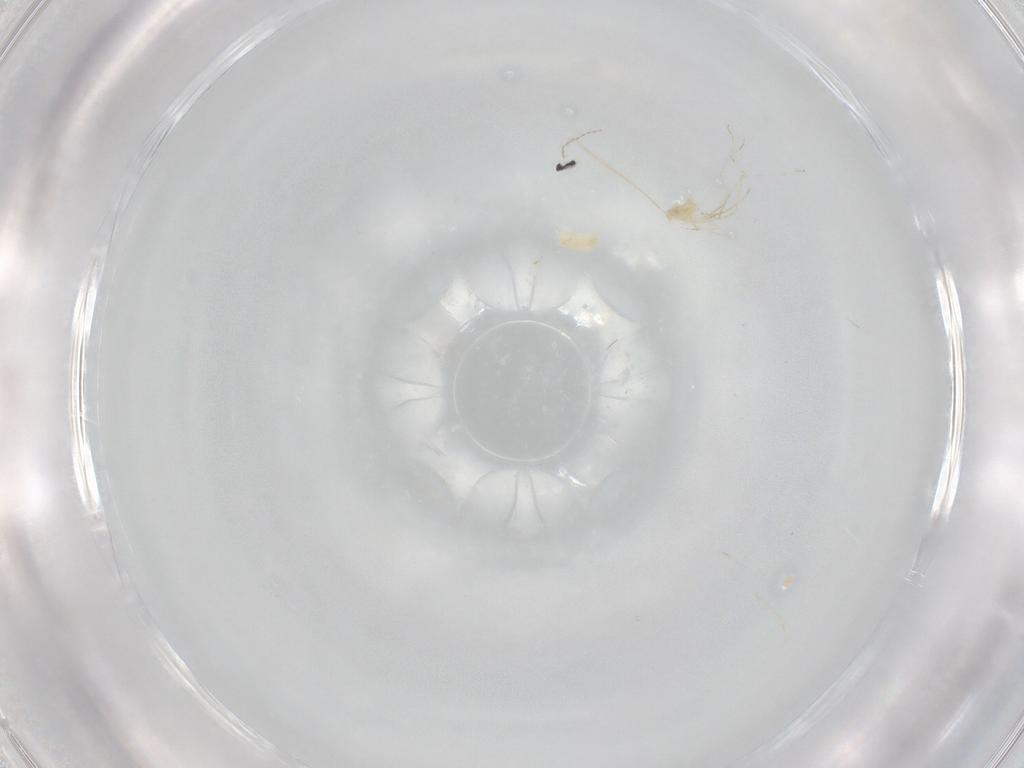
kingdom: Animalia
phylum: Arthropoda
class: Insecta
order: Diptera
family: Cecidomyiidae
